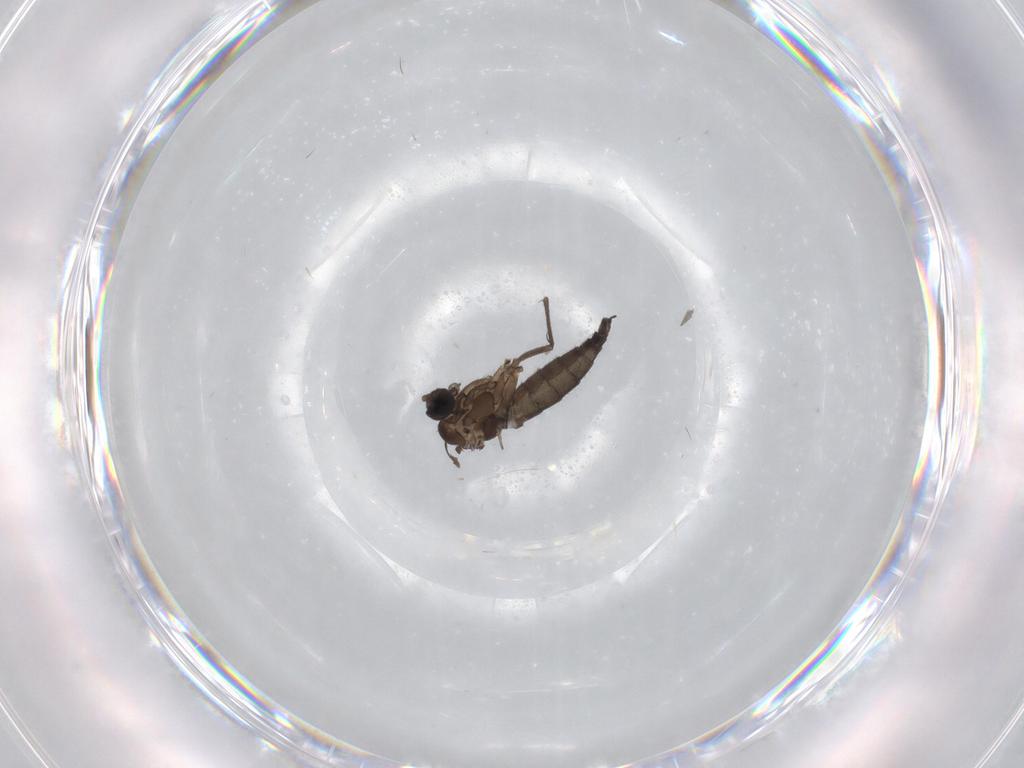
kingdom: Animalia
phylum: Arthropoda
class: Insecta
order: Diptera
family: Sciaridae
